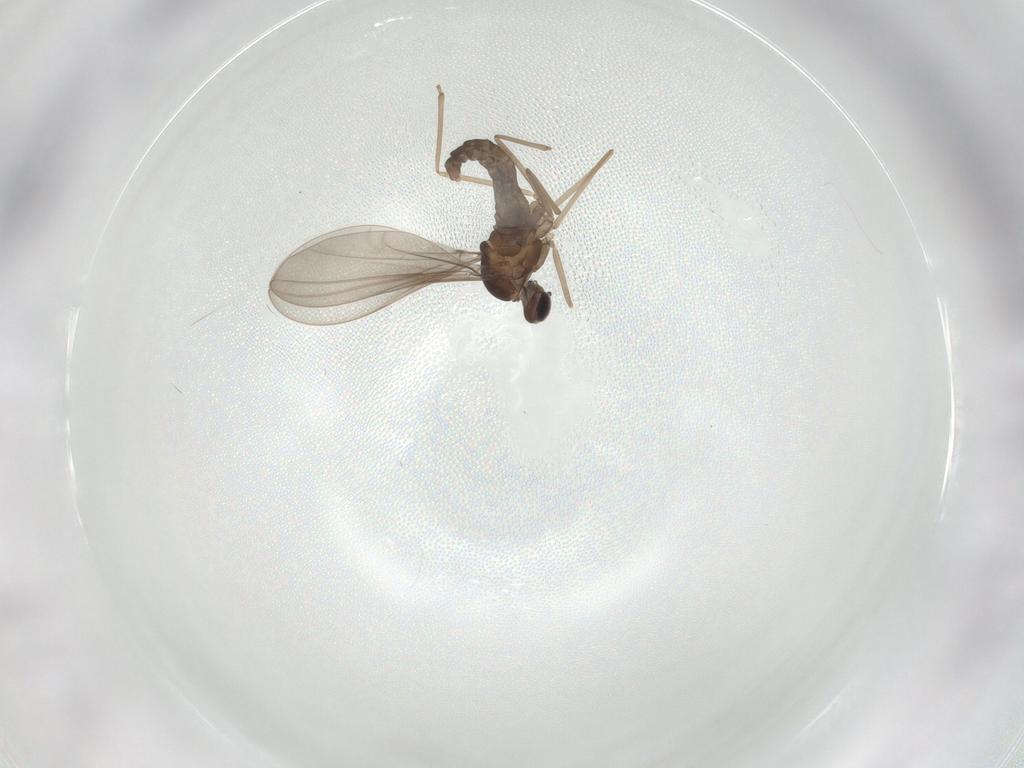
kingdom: Animalia
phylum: Arthropoda
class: Insecta
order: Diptera
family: Cecidomyiidae
